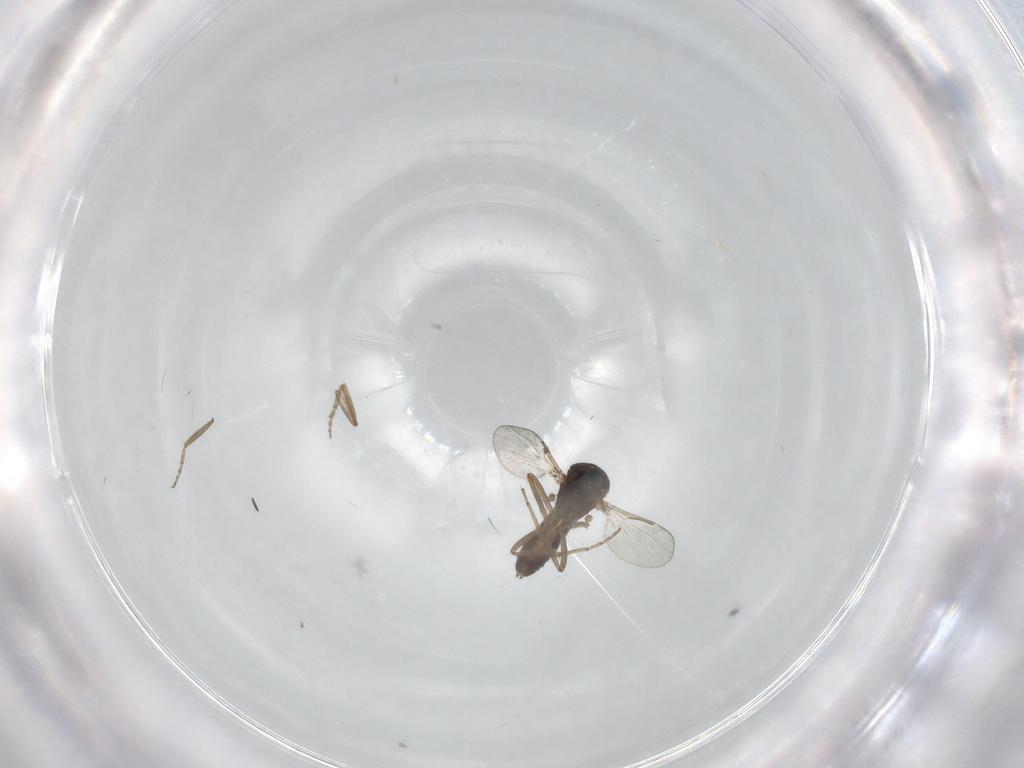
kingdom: Animalia
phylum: Arthropoda
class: Insecta
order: Diptera
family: Ceratopogonidae
